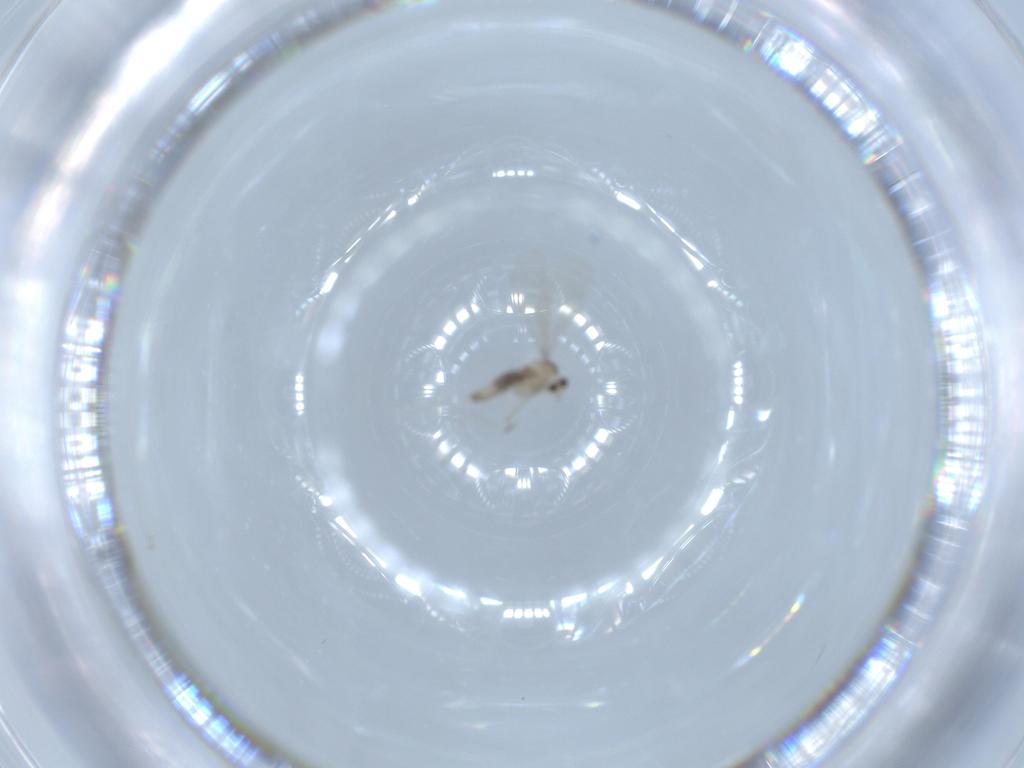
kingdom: Animalia
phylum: Arthropoda
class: Insecta
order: Diptera
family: Cecidomyiidae
